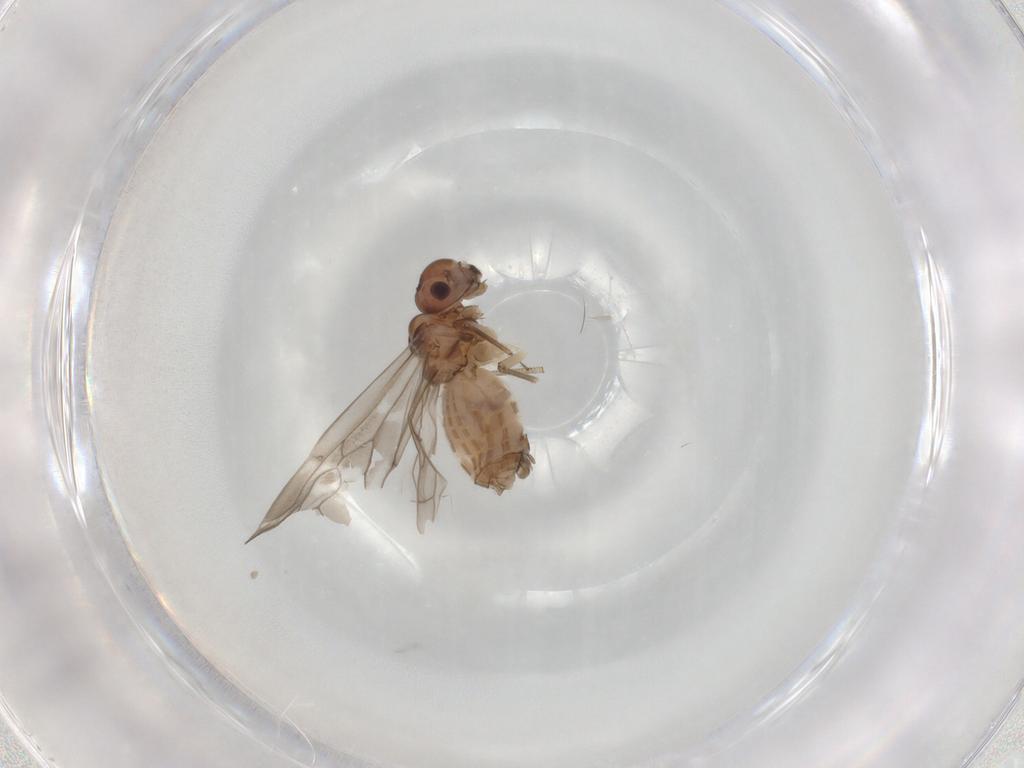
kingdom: Animalia
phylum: Arthropoda
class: Insecta
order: Psocodea
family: Peripsocidae
